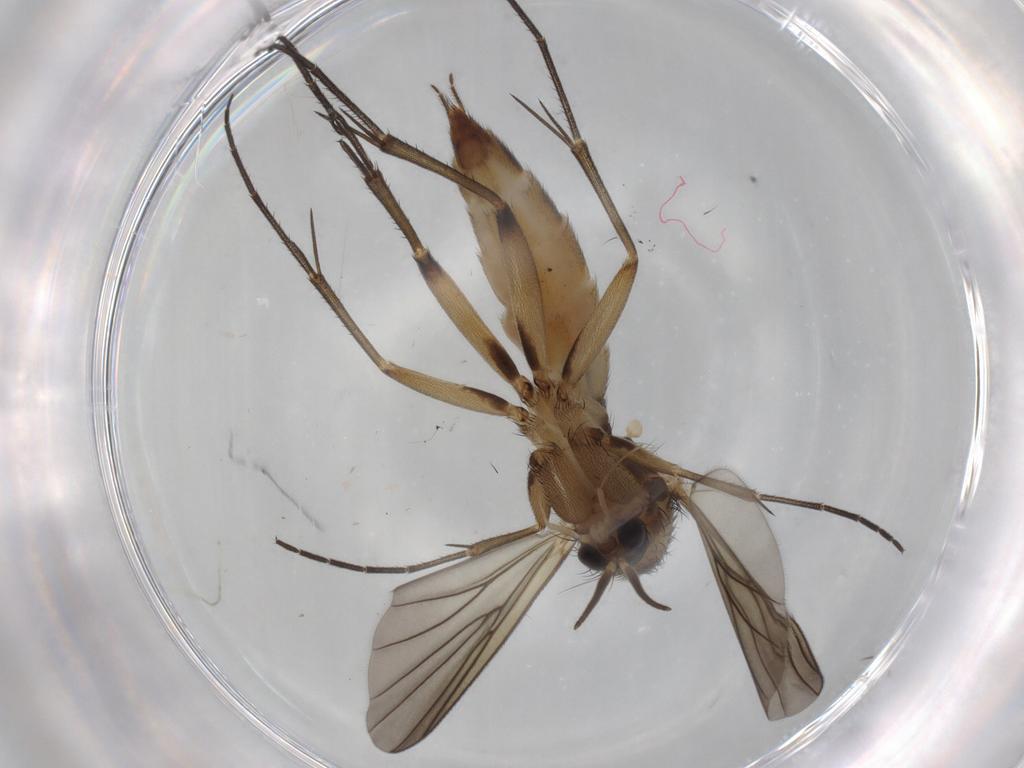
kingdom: Animalia
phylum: Arthropoda
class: Insecta
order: Diptera
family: Mycetophilidae
